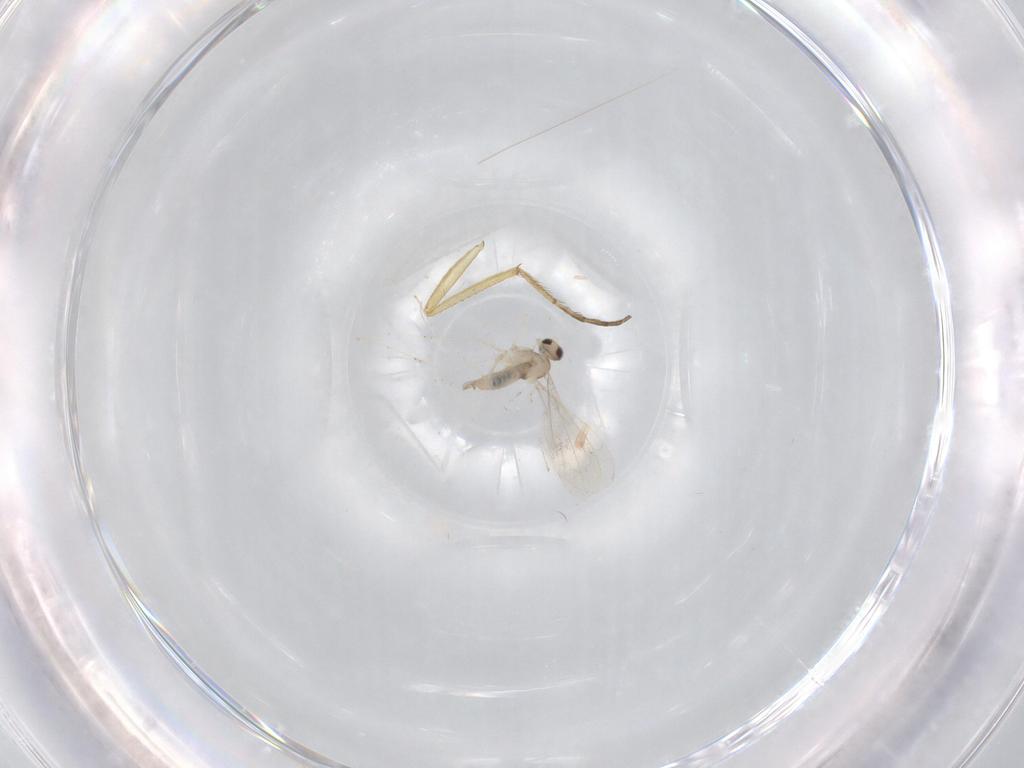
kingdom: Animalia
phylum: Arthropoda
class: Insecta
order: Diptera
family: Cecidomyiidae
